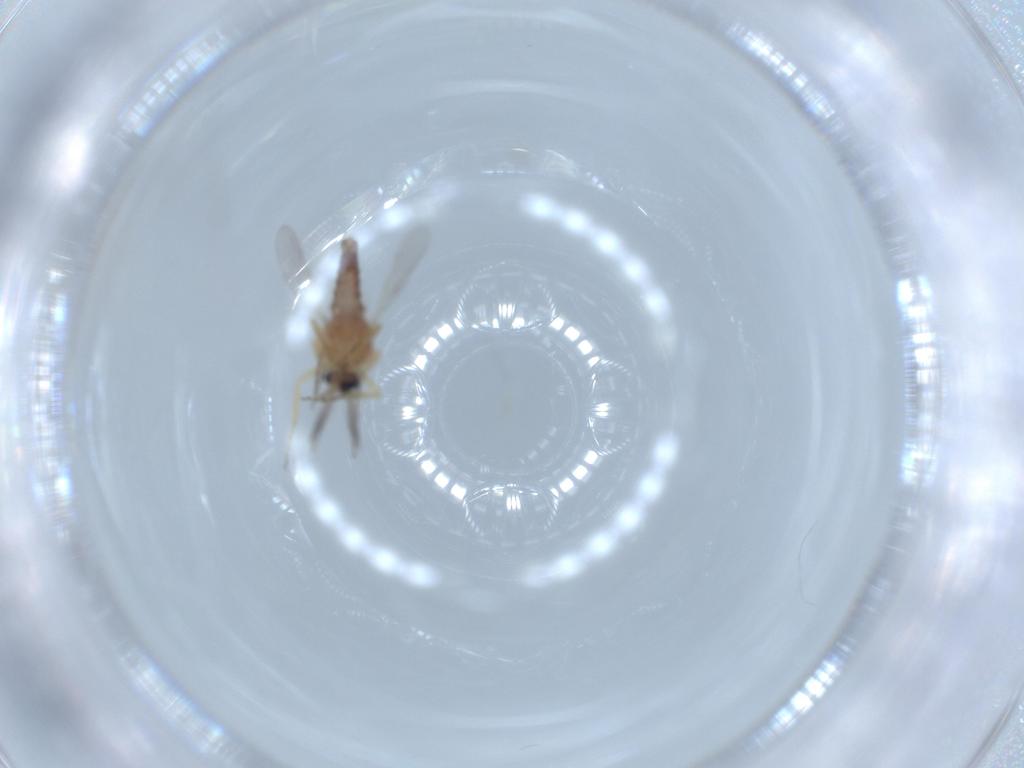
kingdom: Animalia
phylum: Arthropoda
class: Insecta
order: Diptera
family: Ceratopogonidae
